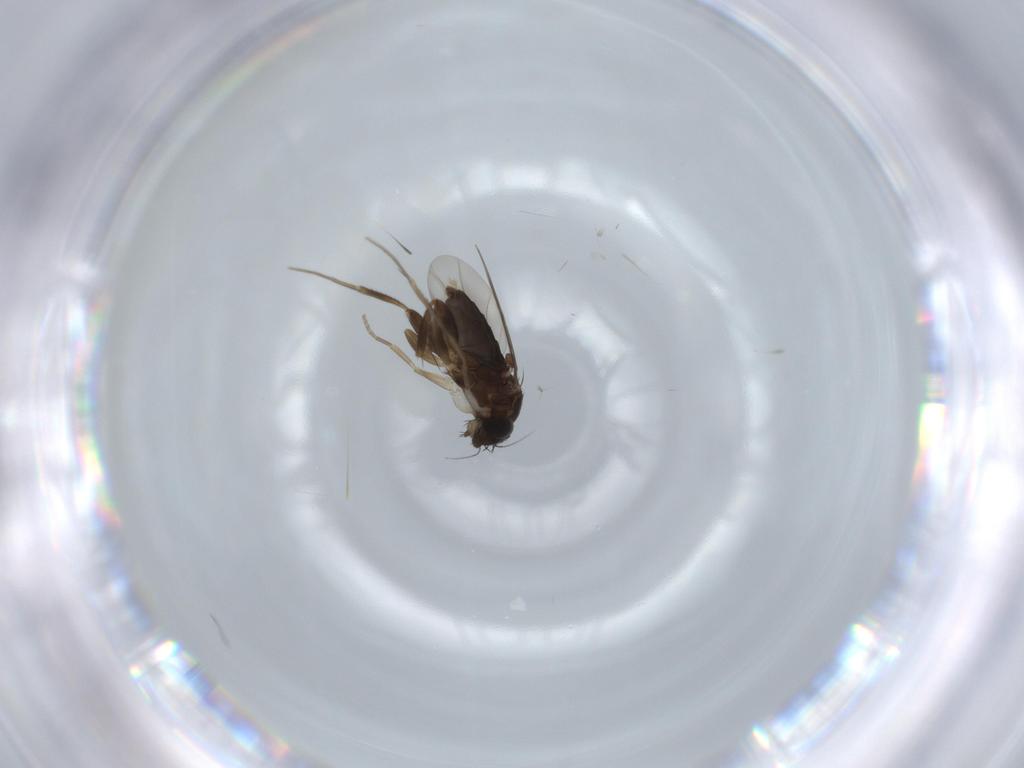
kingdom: Animalia
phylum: Arthropoda
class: Insecta
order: Diptera
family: Phoridae
